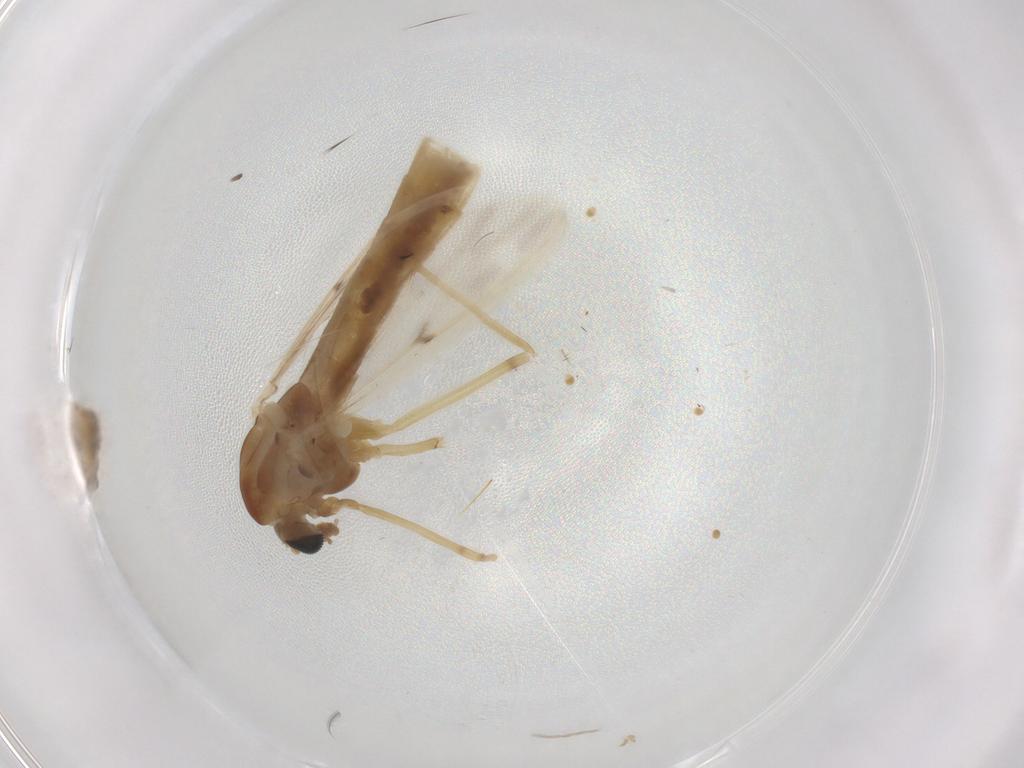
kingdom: Animalia
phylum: Arthropoda
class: Insecta
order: Diptera
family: Chironomidae
